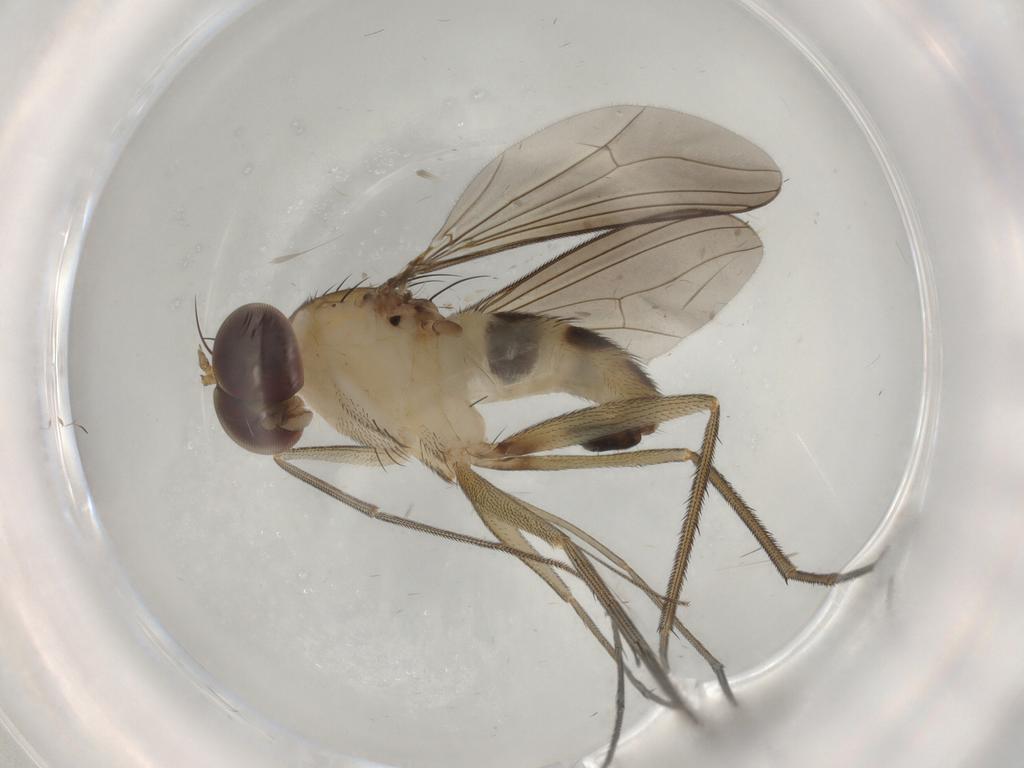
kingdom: Animalia
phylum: Arthropoda
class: Insecta
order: Diptera
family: Dolichopodidae
